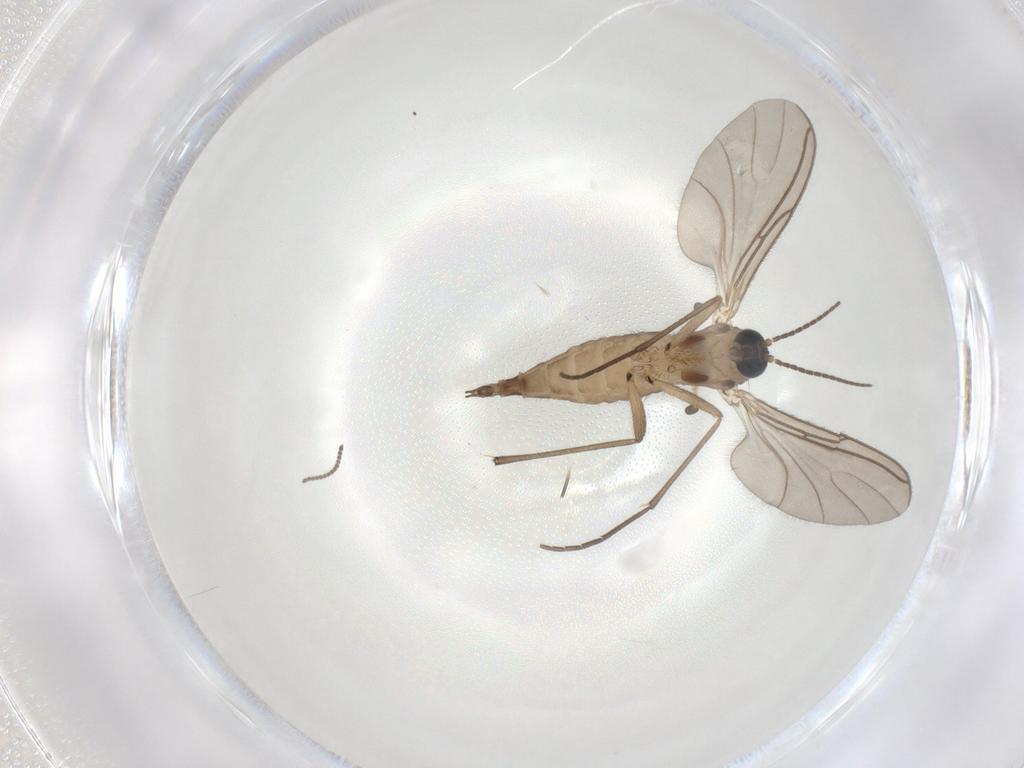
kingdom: Animalia
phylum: Arthropoda
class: Insecta
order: Diptera
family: Sciaridae
